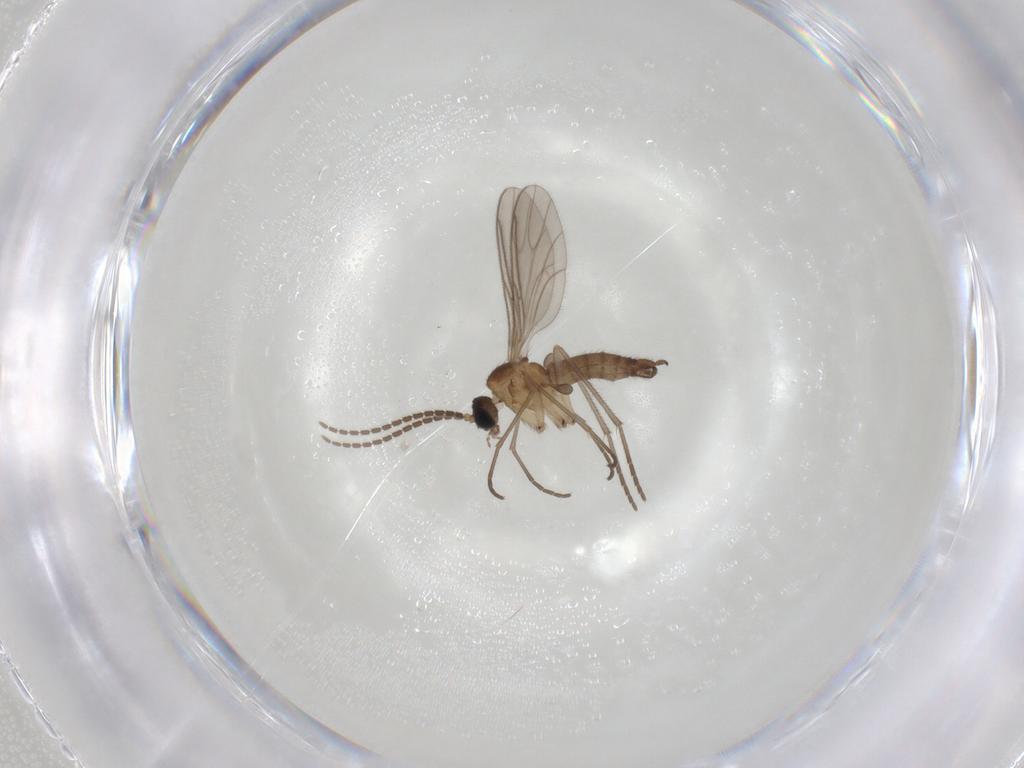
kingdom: Animalia
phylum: Arthropoda
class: Insecta
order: Diptera
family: Sciaridae
